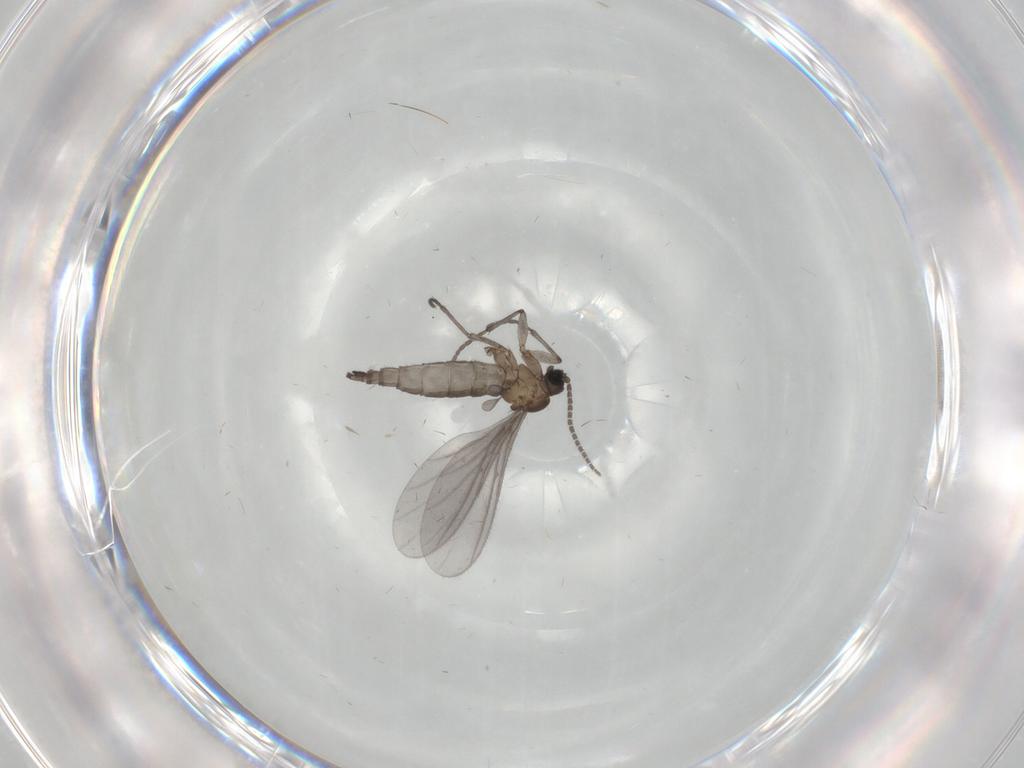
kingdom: Animalia
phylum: Arthropoda
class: Insecta
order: Diptera
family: Sciaridae
